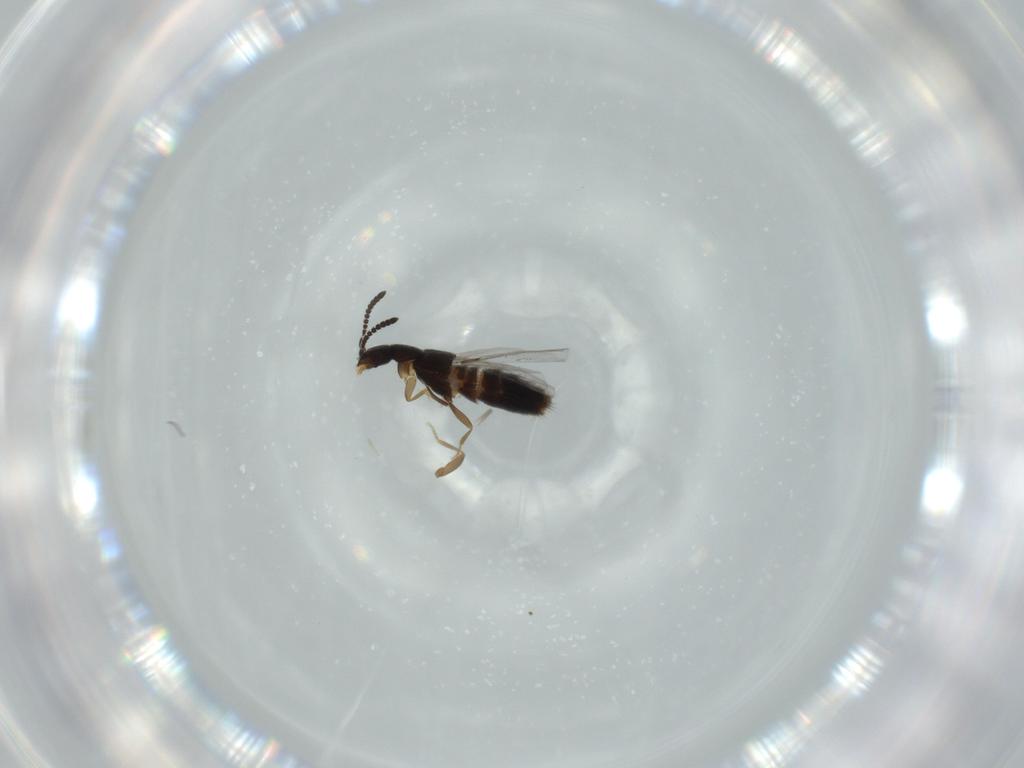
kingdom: Animalia
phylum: Arthropoda
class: Insecta
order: Coleoptera
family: Staphylinidae
